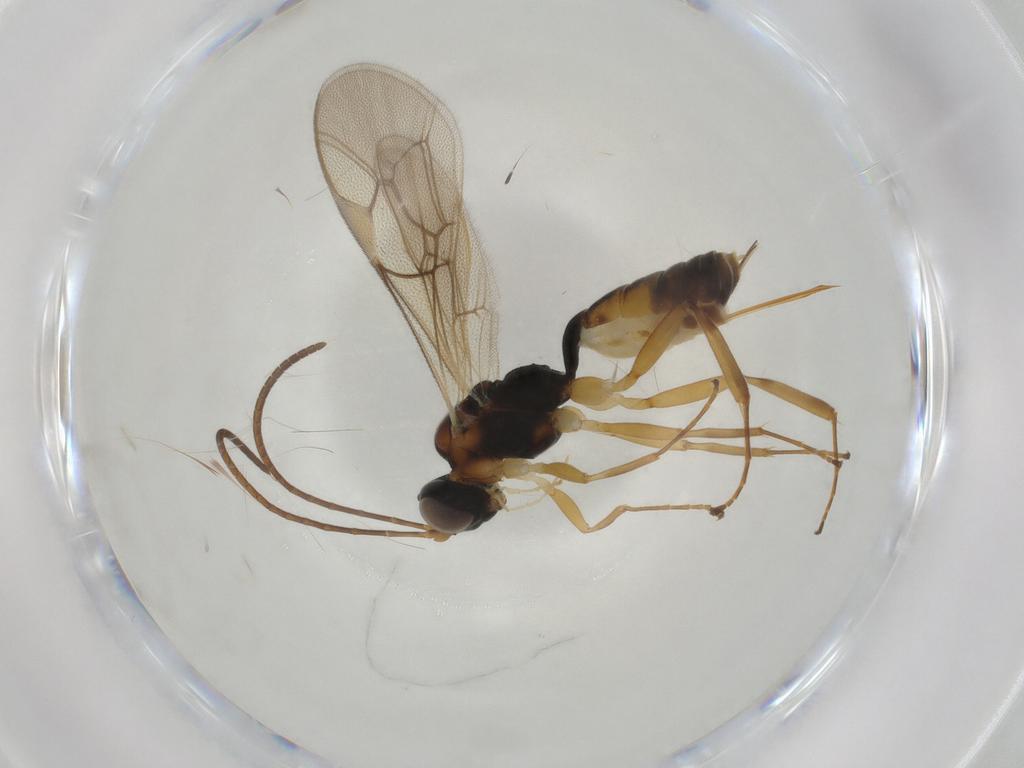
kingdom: Animalia
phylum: Arthropoda
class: Insecta
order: Hymenoptera
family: Ichneumonidae
